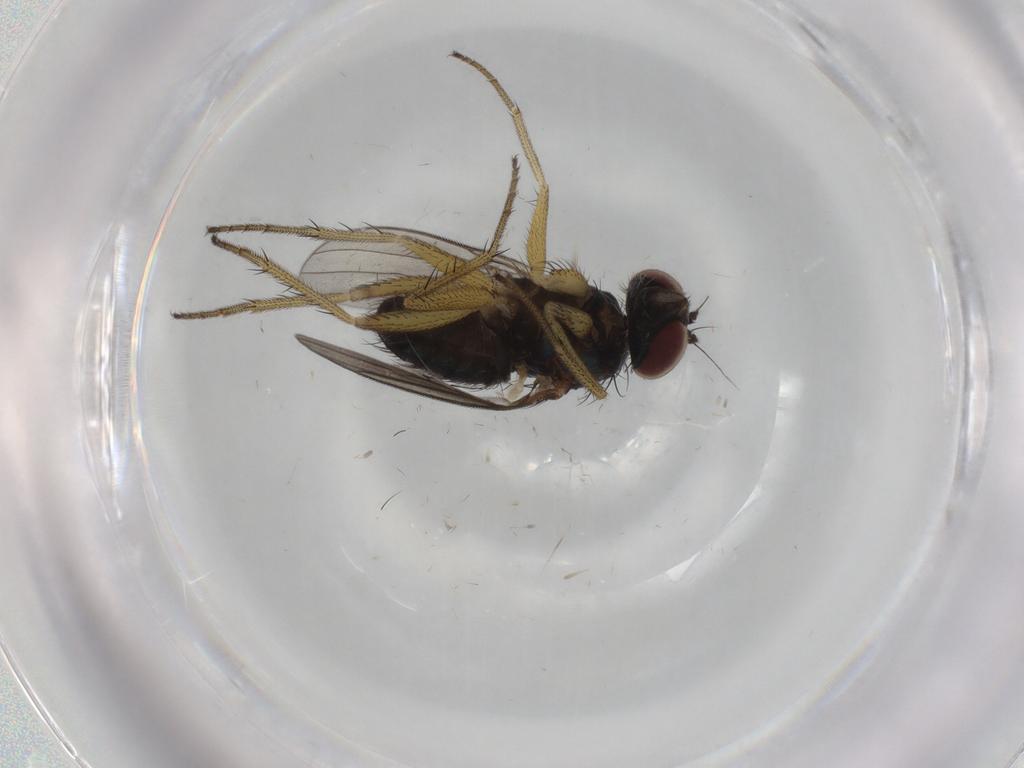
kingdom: Animalia
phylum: Arthropoda
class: Insecta
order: Diptera
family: Dolichopodidae
